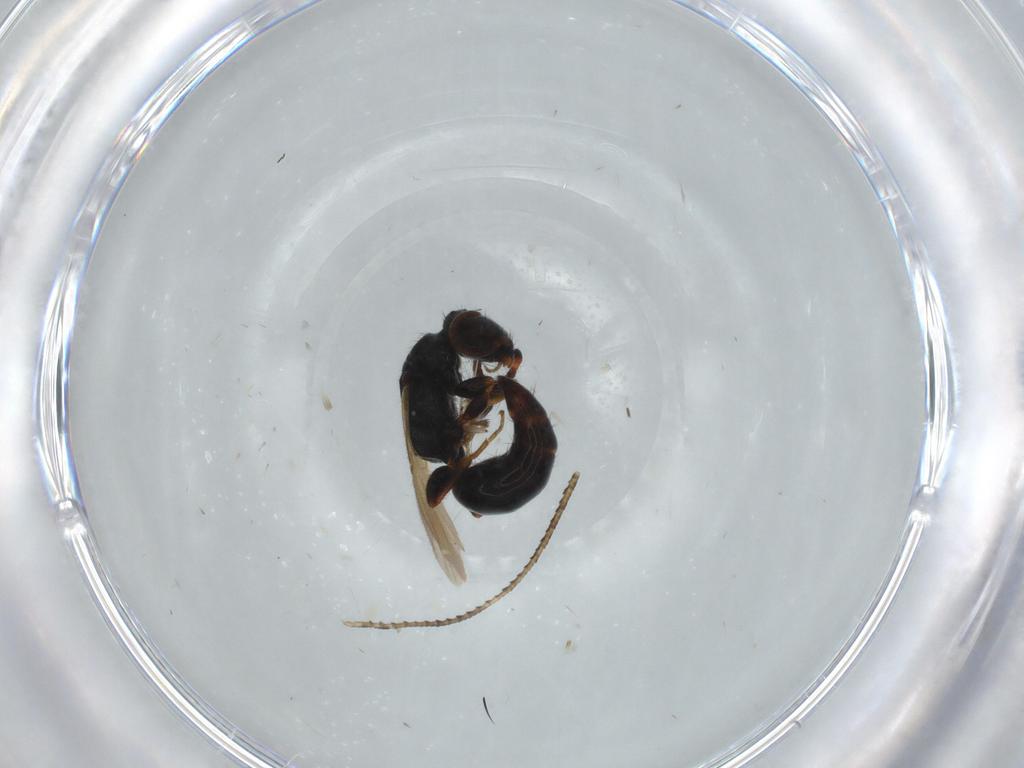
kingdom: Animalia
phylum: Arthropoda
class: Insecta
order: Hymenoptera
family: Bethylidae
